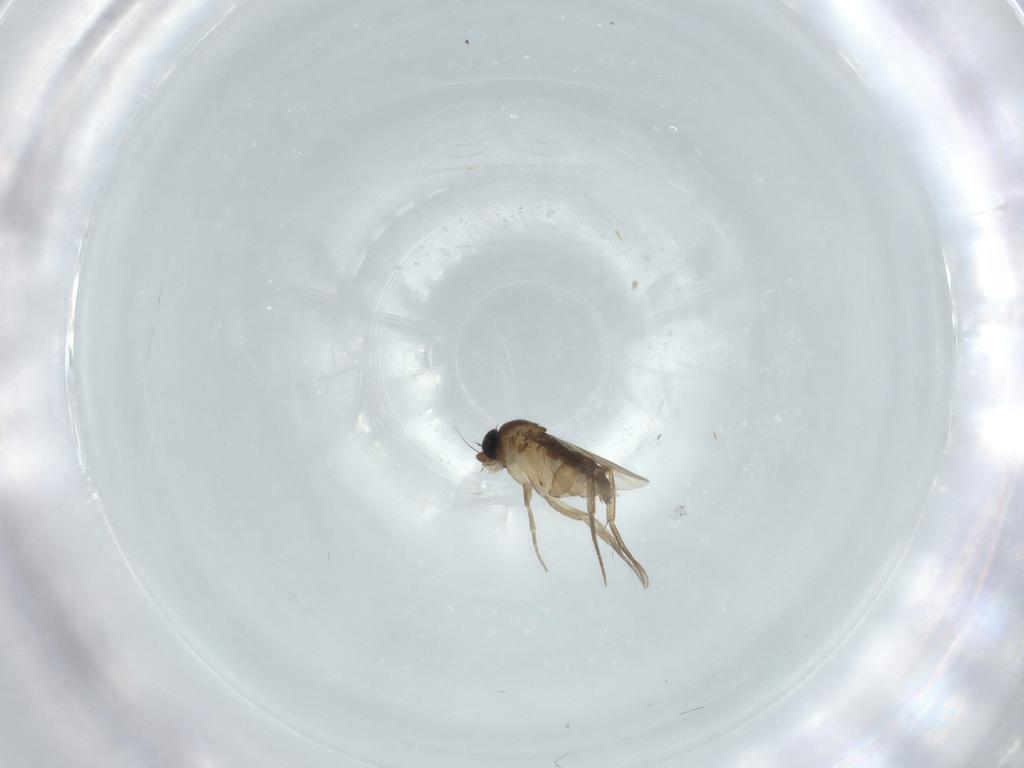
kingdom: Animalia
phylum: Arthropoda
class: Insecta
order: Diptera
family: Phoridae
